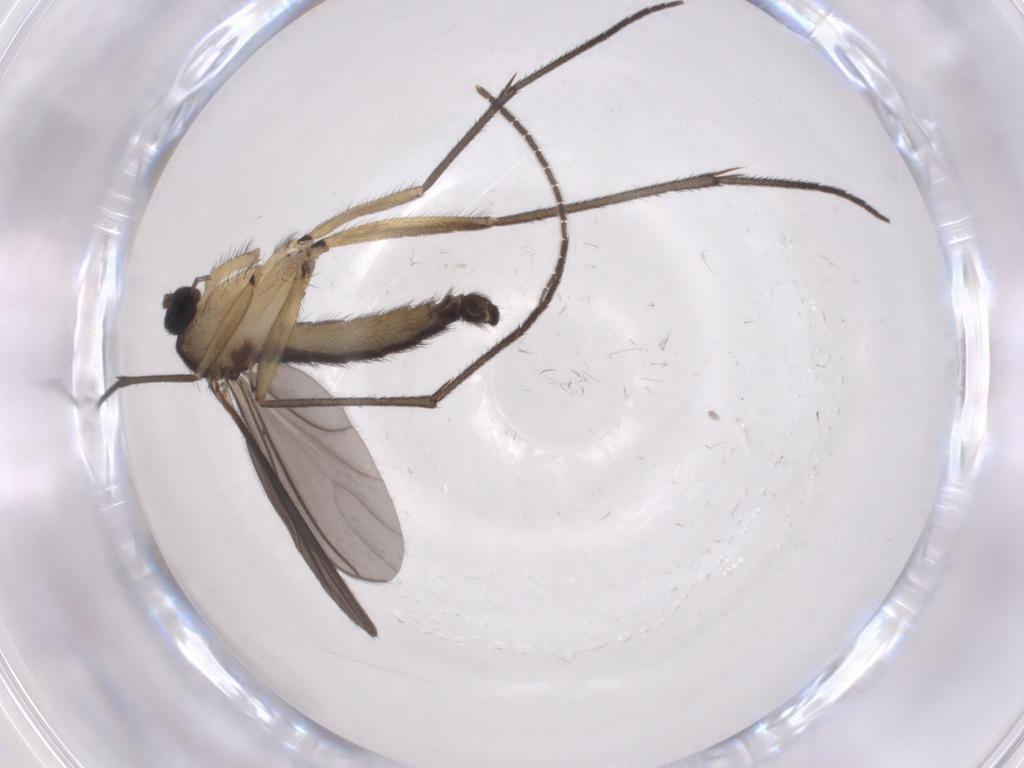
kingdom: Animalia
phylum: Arthropoda
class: Insecta
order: Diptera
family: Sciaridae
